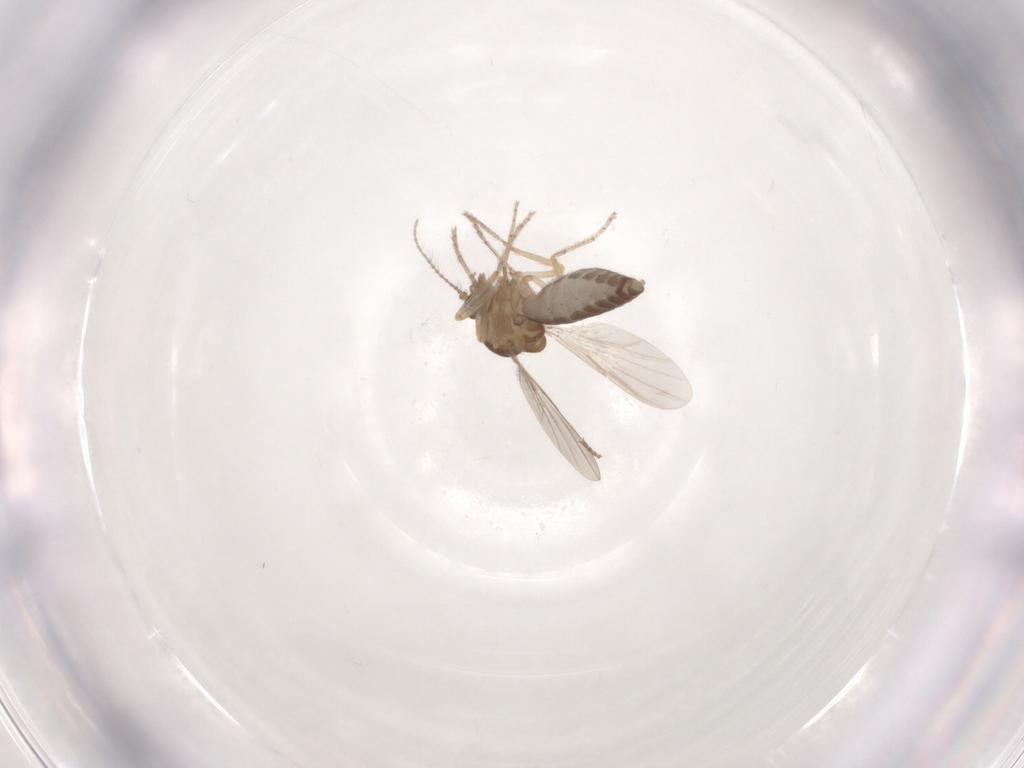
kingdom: Animalia
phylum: Arthropoda
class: Insecta
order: Diptera
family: Ceratopogonidae
